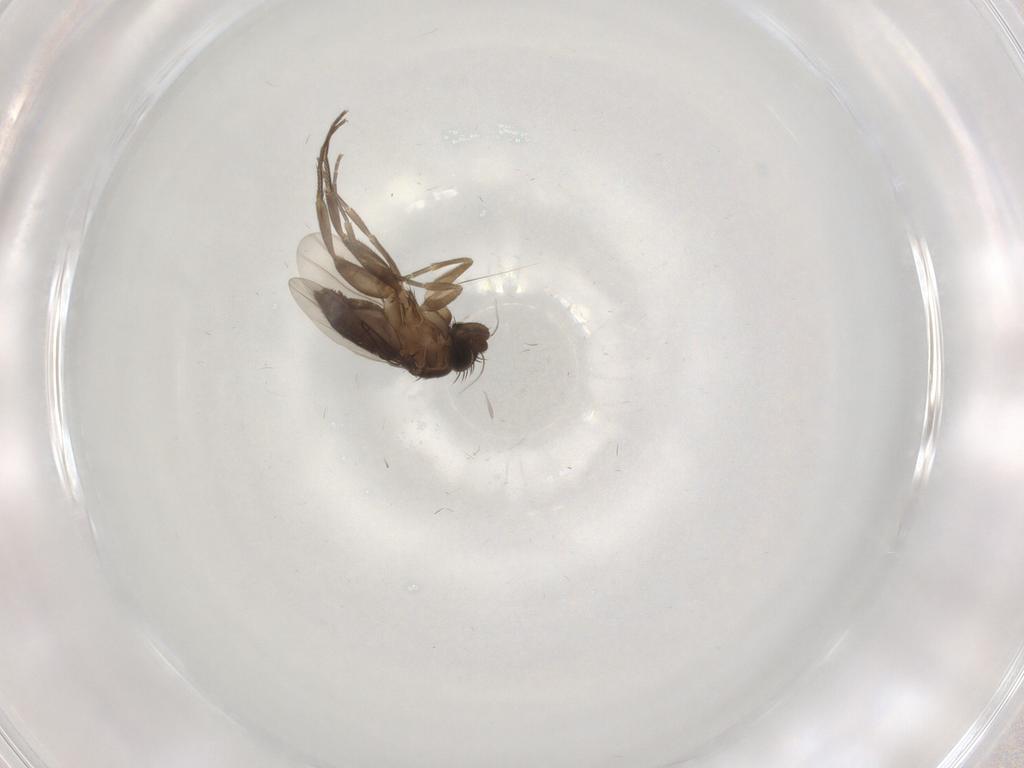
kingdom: Animalia
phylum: Arthropoda
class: Insecta
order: Diptera
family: Phoridae
